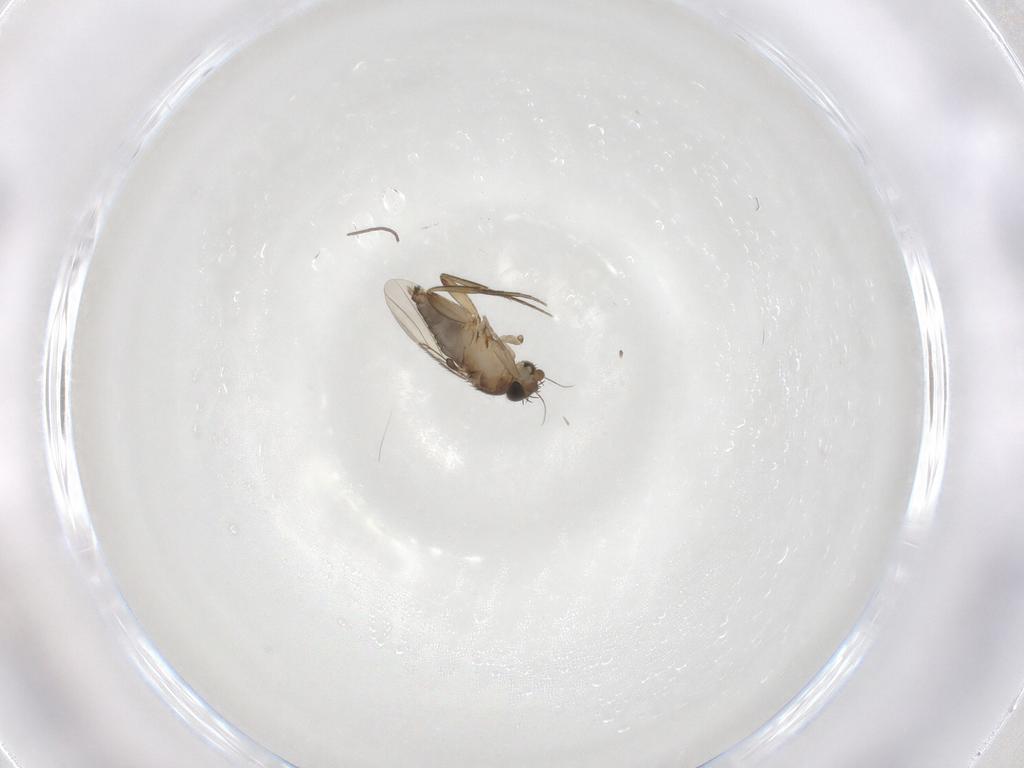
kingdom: Animalia
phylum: Arthropoda
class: Insecta
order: Diptera
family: Phoridae
